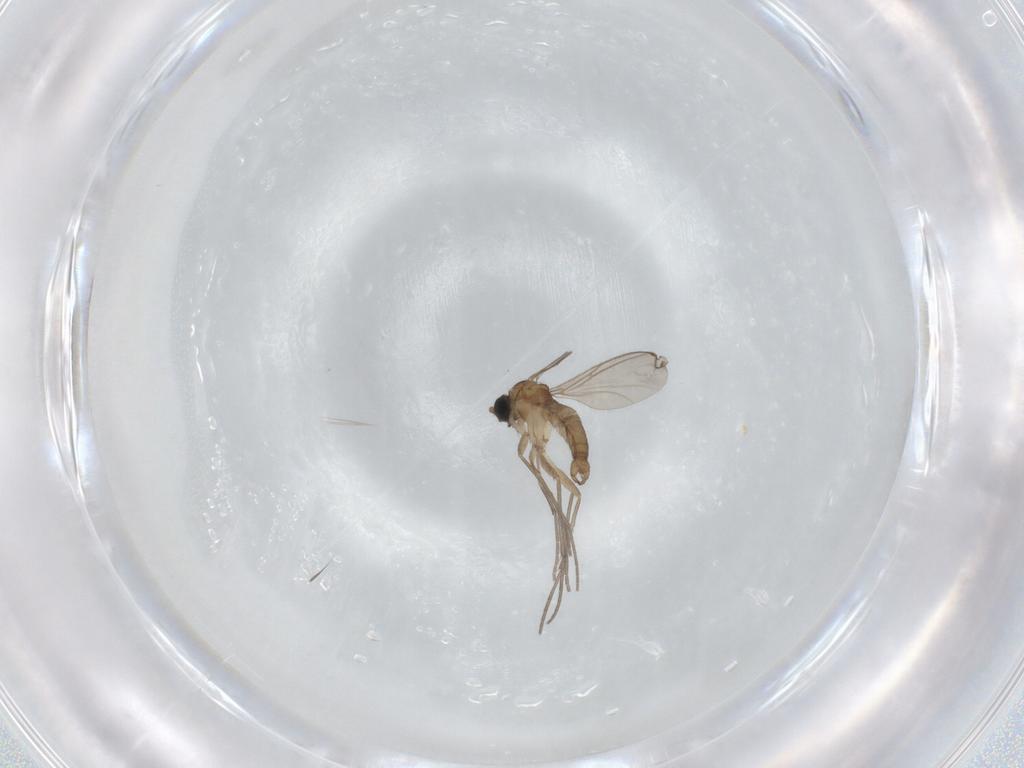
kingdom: Animalia
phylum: Arthropoda
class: Insecta
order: Diptera
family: Sciaridae
